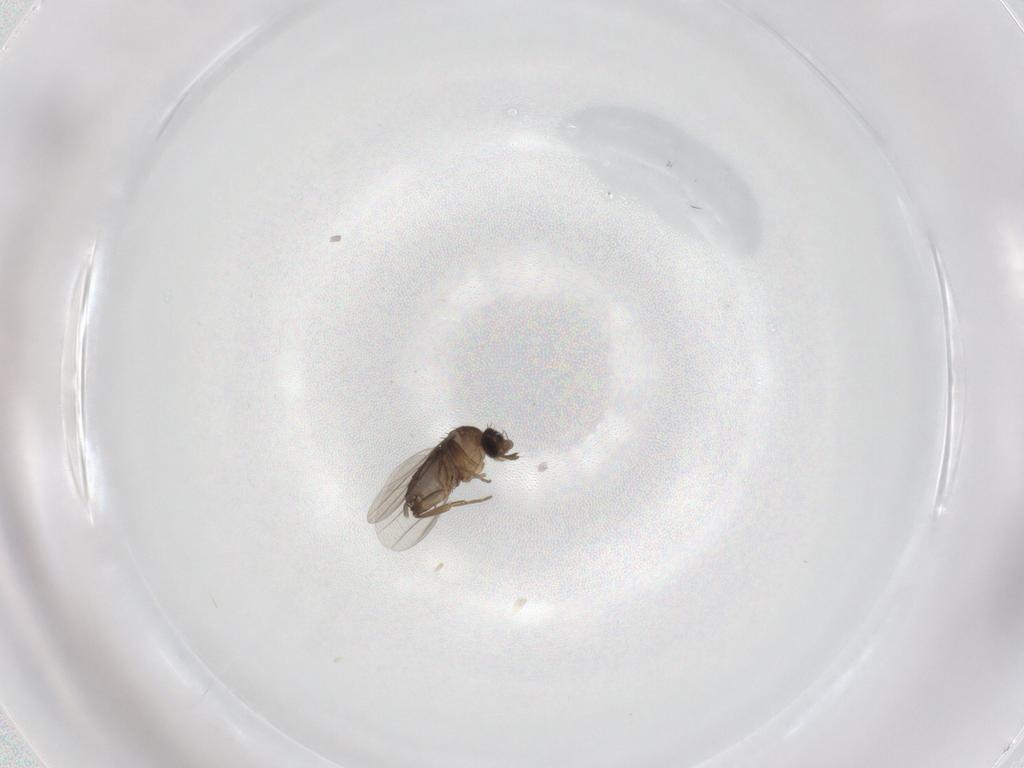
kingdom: Animalia
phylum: Arthropoda
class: Insecta
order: Diptera
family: Phoridae
